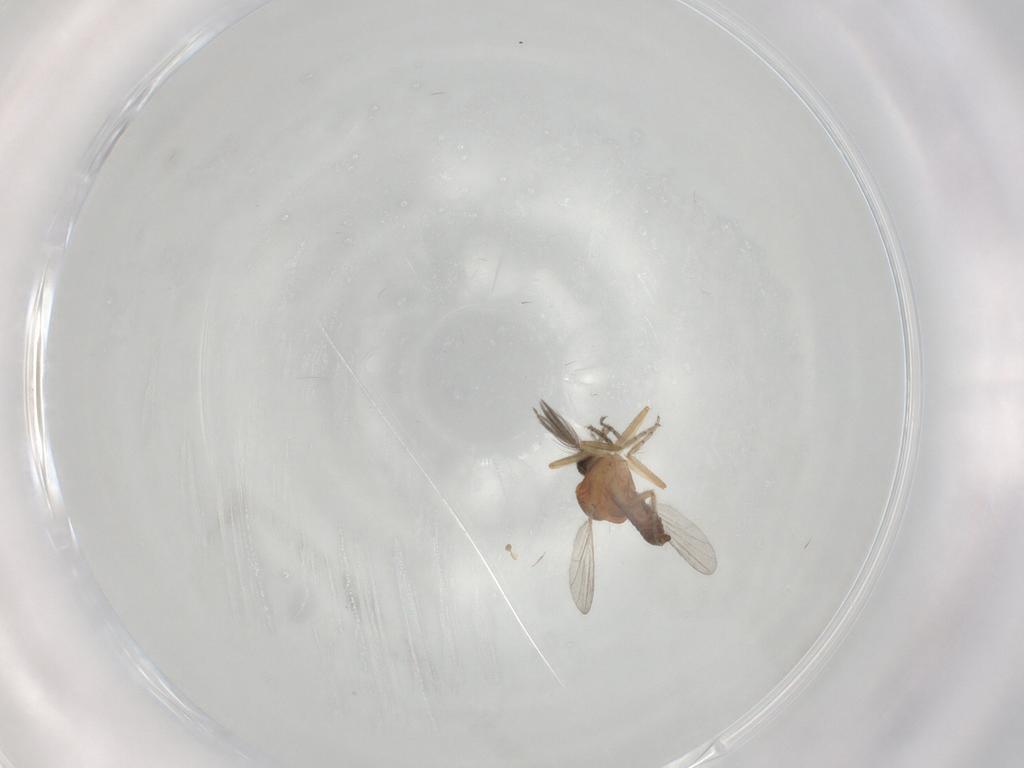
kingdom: Animalia
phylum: Arthropoda
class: Insecta
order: Diptera
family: Ceratopogonidae
